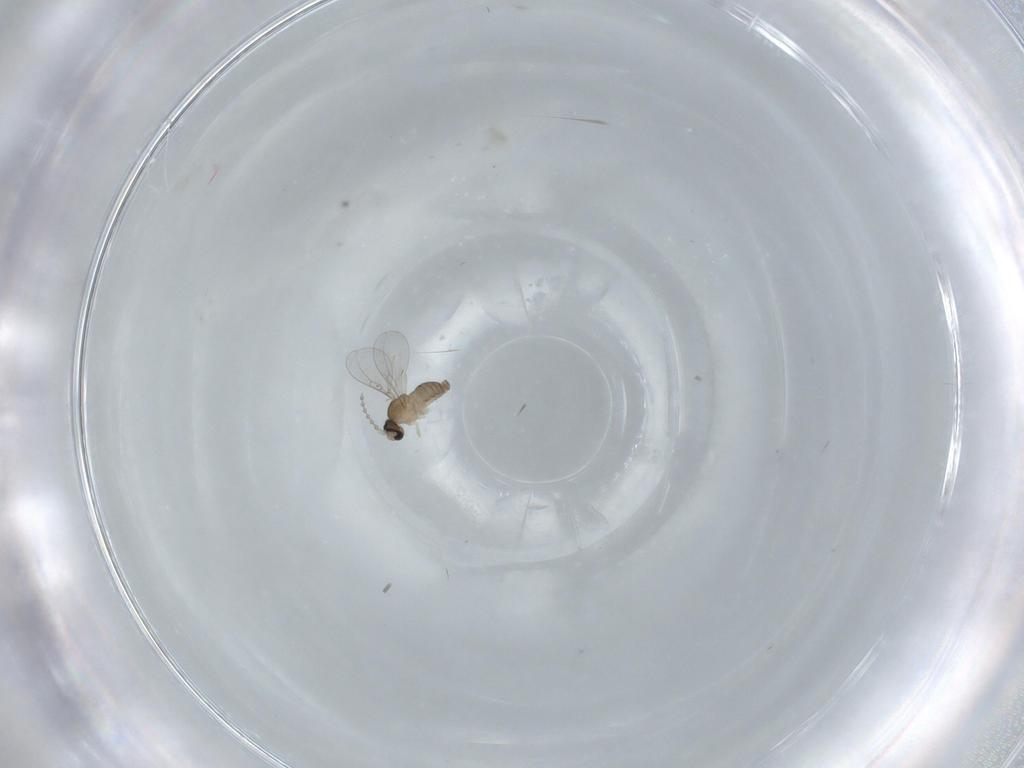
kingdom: Animalia
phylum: Arthropoda
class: Insecta
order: Diptera
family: Cecidomyiidae
